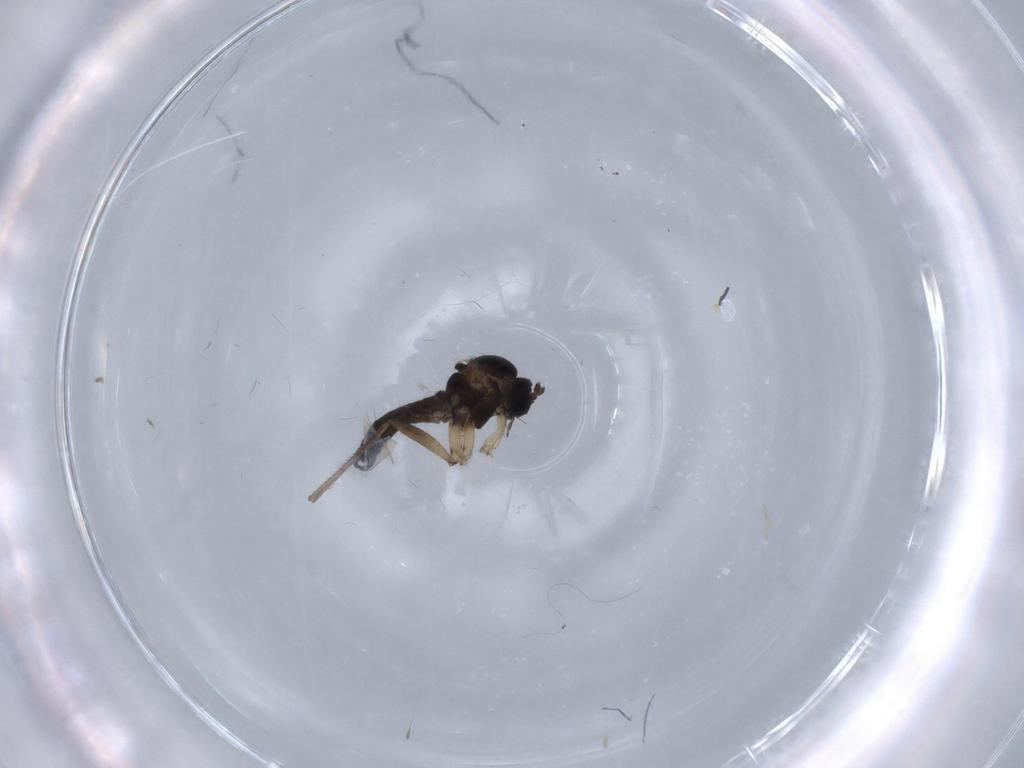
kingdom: Animalia
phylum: Arthropoda
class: Insecta
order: Diptera
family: Sciaridae
